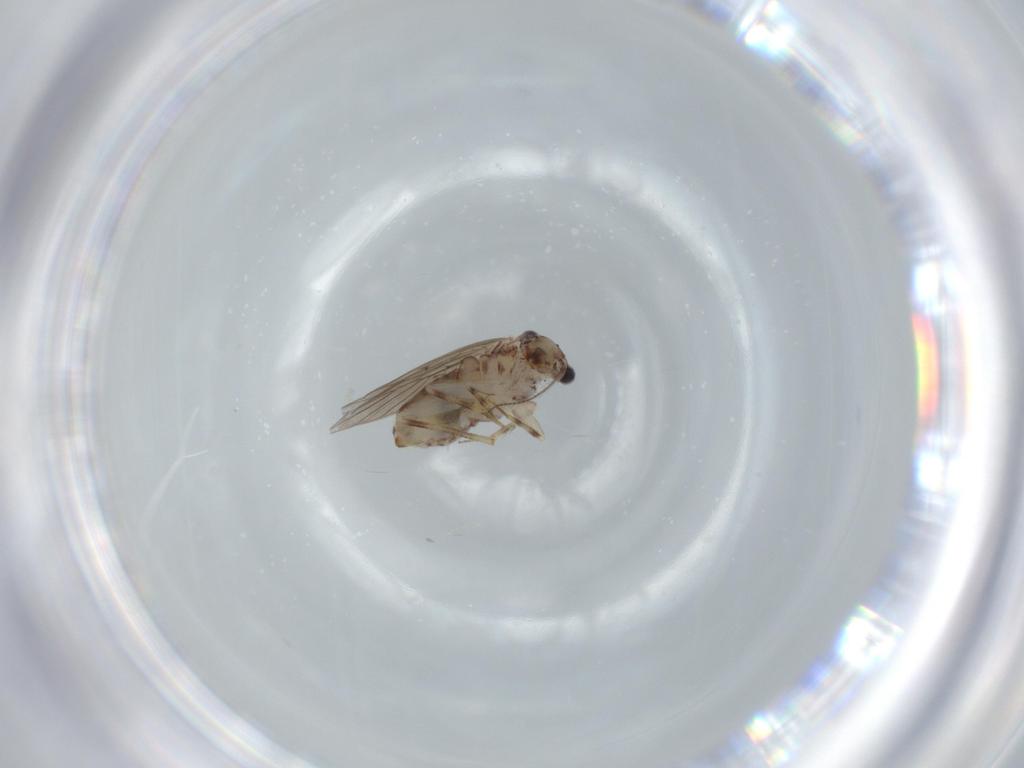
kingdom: Animalia
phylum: Arthropoda
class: Insecta
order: Psocodea
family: Lepidopsocidae
